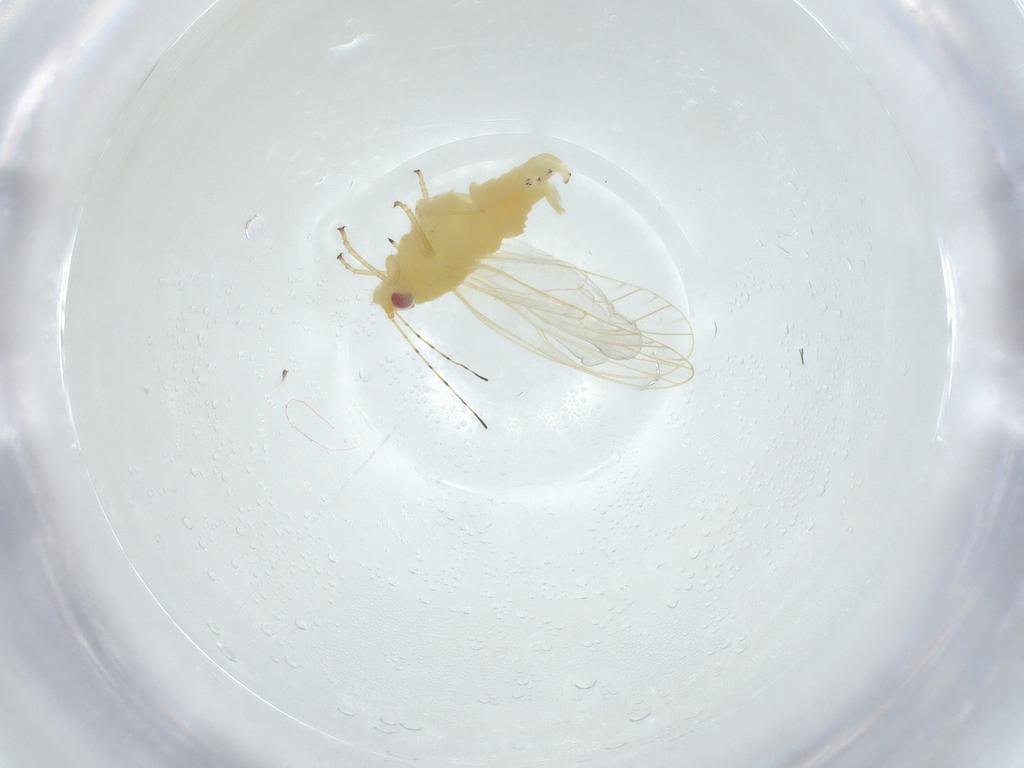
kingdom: Animalia
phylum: Arthropoda
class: Insecta
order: Hemiptera
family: Psyllidae
